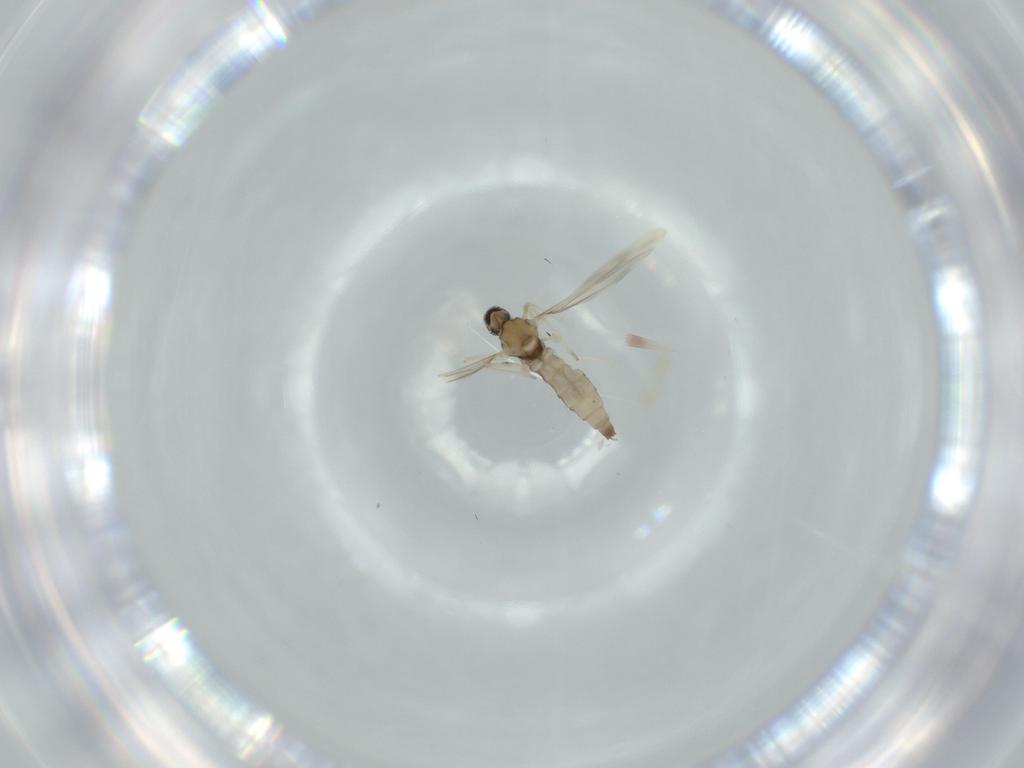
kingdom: Animalia
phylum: Arthropoda
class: Insecta
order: Diptera
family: Cecidomyiidae
